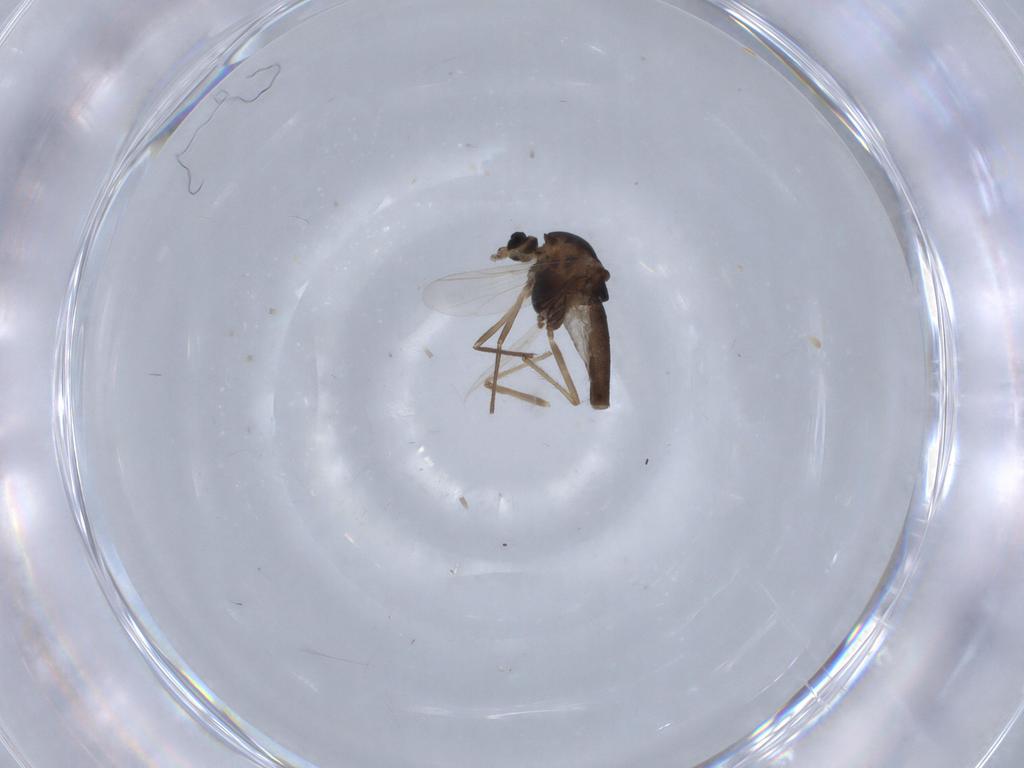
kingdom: Animalia
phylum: Arthropoda
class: Insecta
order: Diptera
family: Chironomidae
